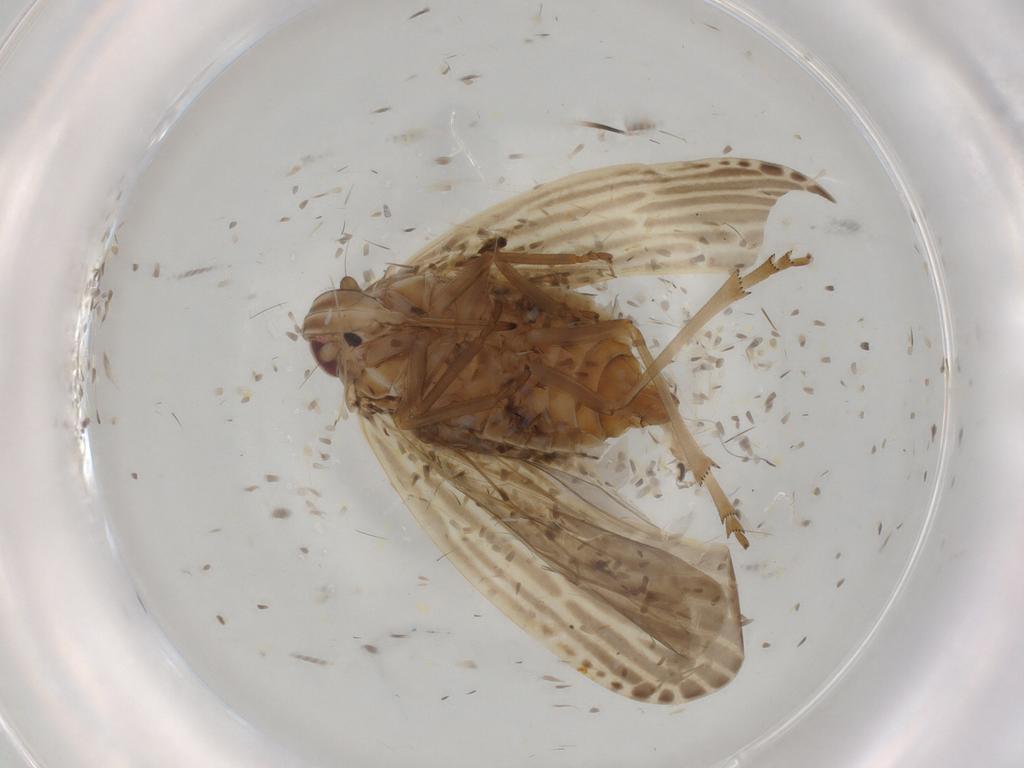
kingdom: Animalia
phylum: Arthropoda
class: Insecta
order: Hemiptera
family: Cicadellidae
